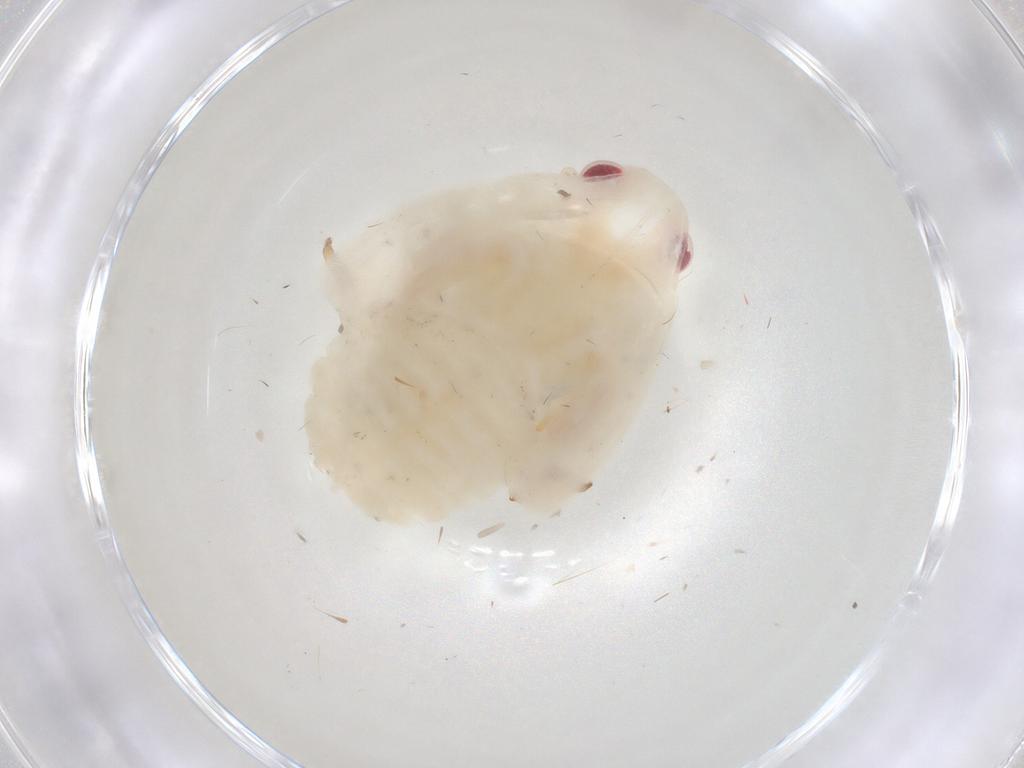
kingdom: Animalia
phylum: Arthropoda
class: Insecta
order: Hemiptera
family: Flatidae
